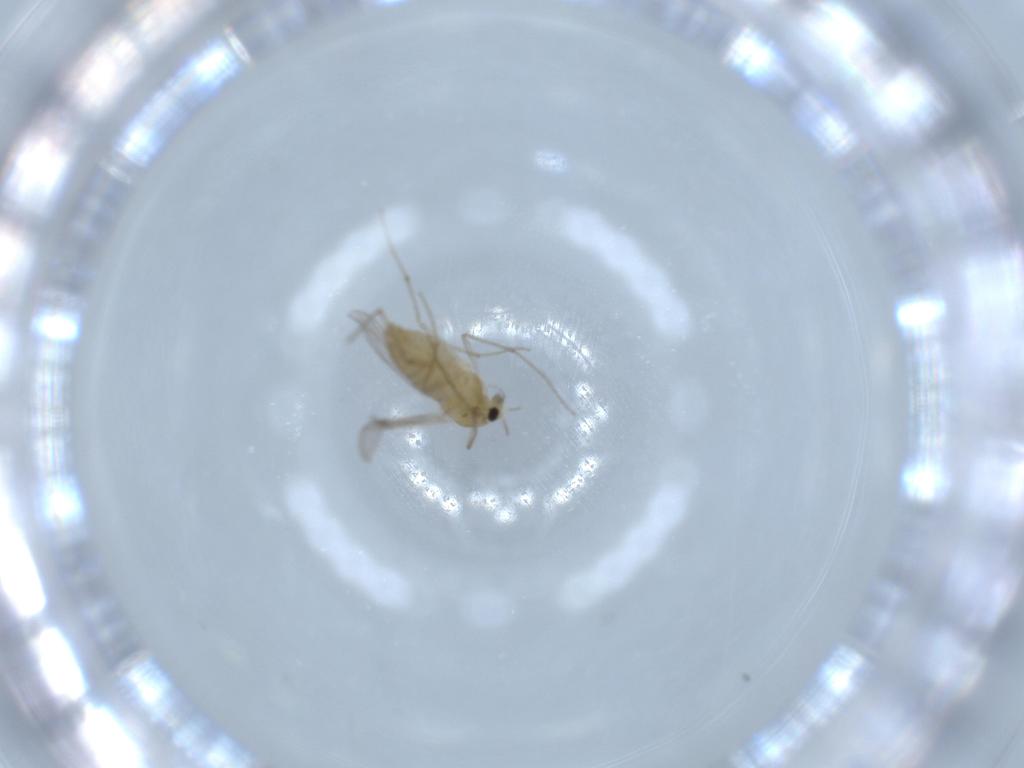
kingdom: Animalia
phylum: Arthropoda
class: Insecta
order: Diptera
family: Chironomidae
